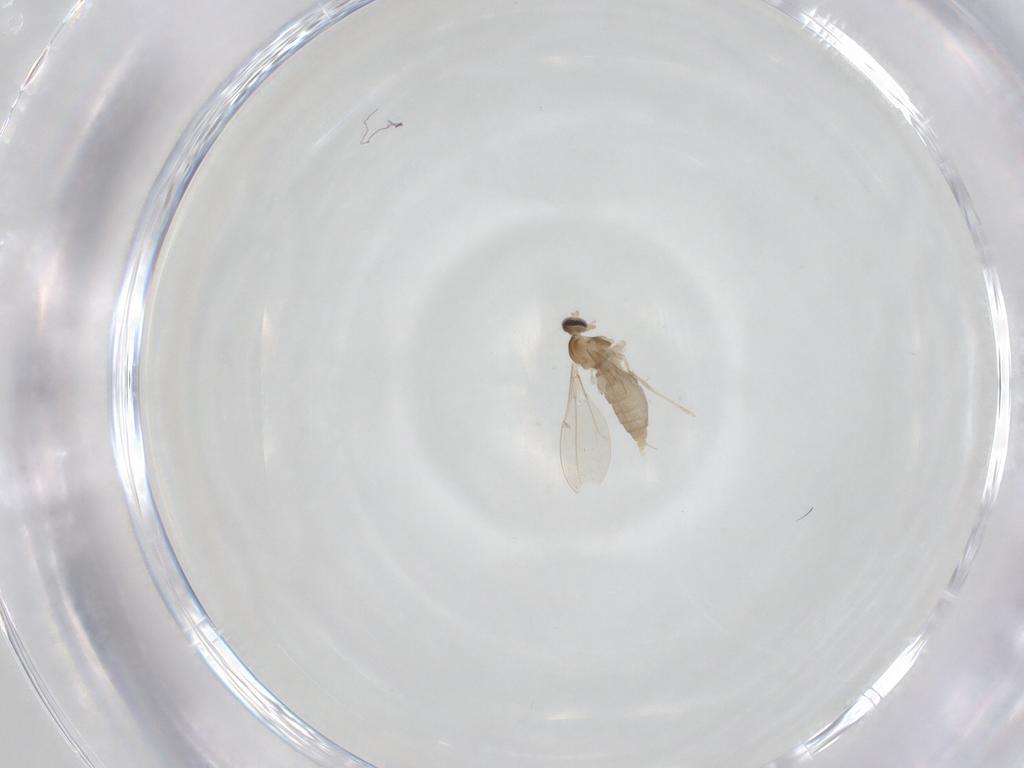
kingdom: Animalia
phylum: Arthropoda
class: Insecta
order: Diptera
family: Cecidomyiidae
